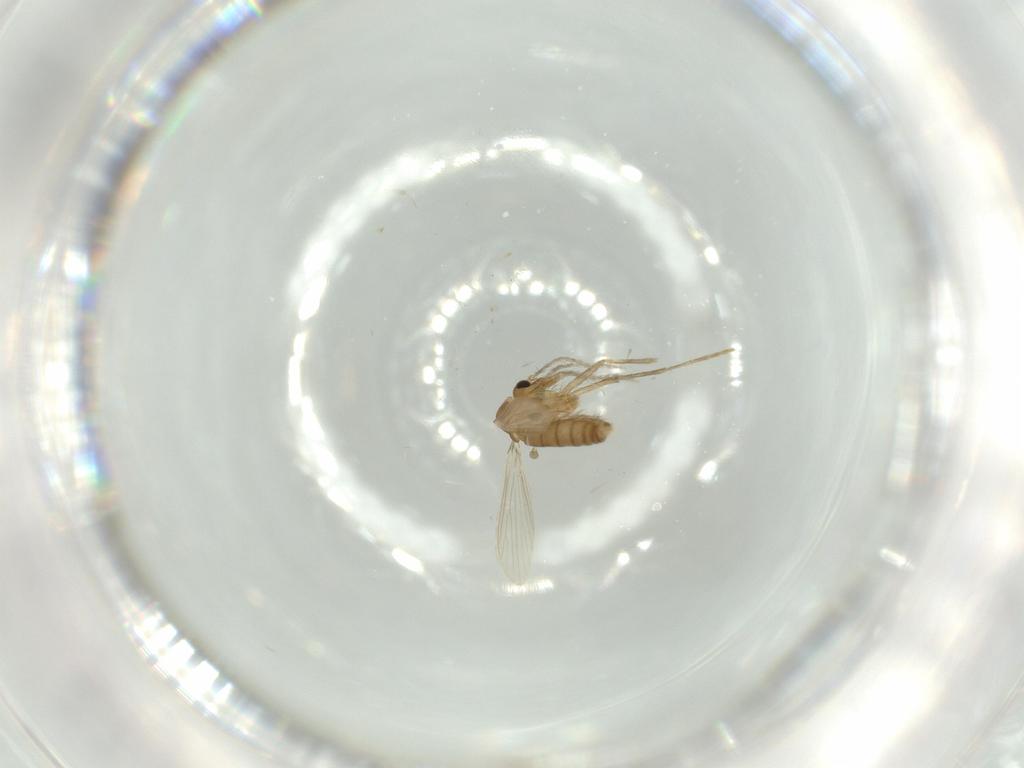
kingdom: Animalia
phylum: Arthropoda
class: Insecta
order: Diptera
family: Psychodidae
